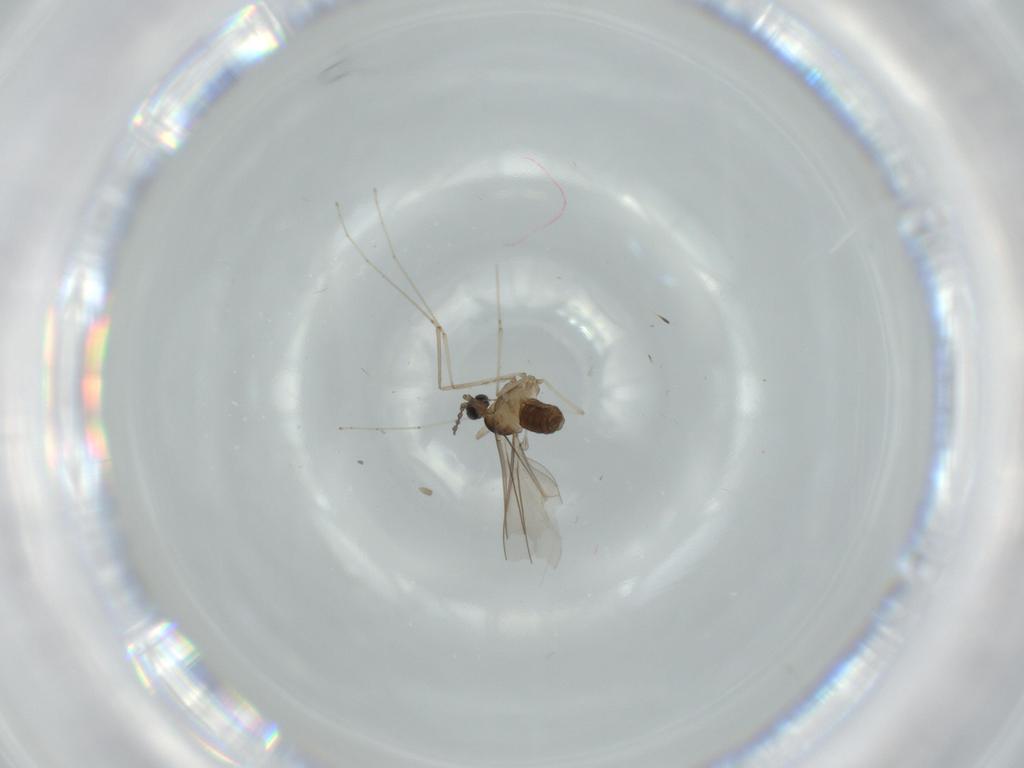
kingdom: Animalia
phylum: Arthropoda
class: Insecta
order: Diptera
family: Cecidomyiidae
